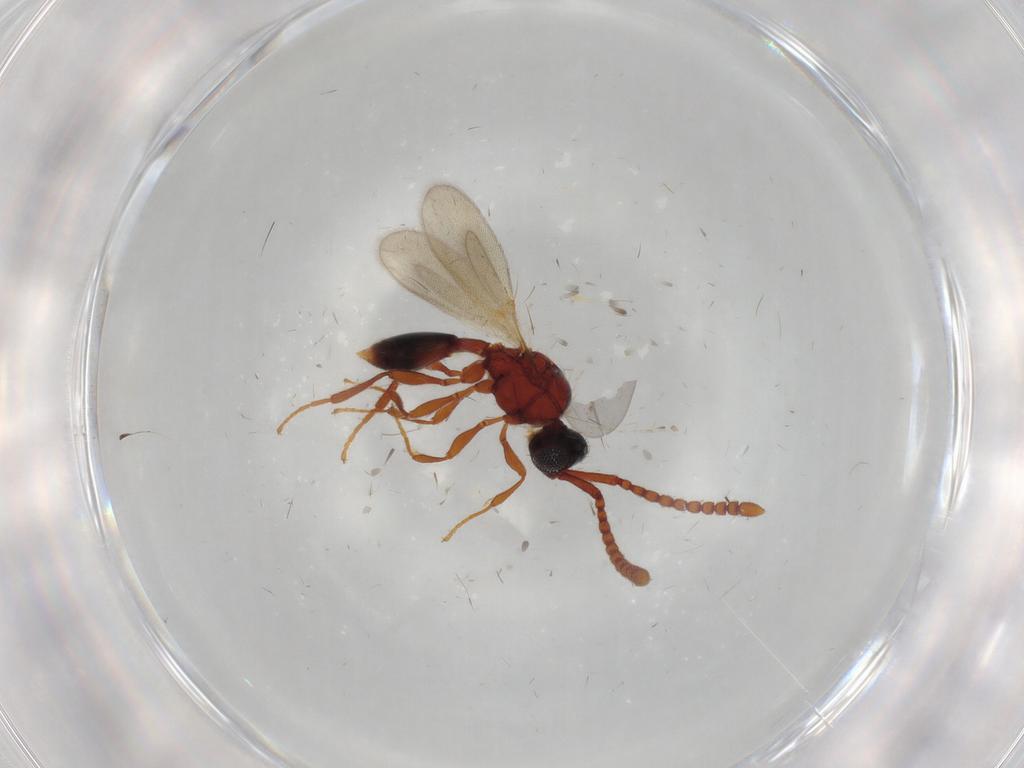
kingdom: Animalia
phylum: Arthropoda
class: Insecta
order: Hymenoptera
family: Diapriidae
